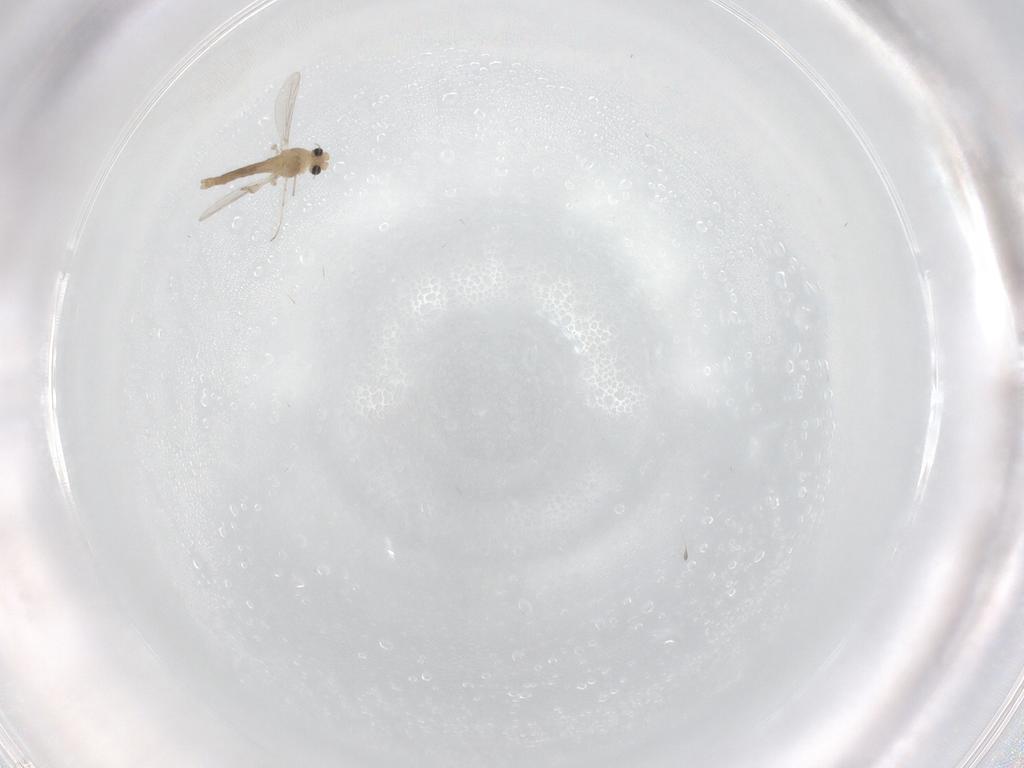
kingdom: Animalia
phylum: Arthropoda
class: Insecta
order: Diptera
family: Chironomidae
